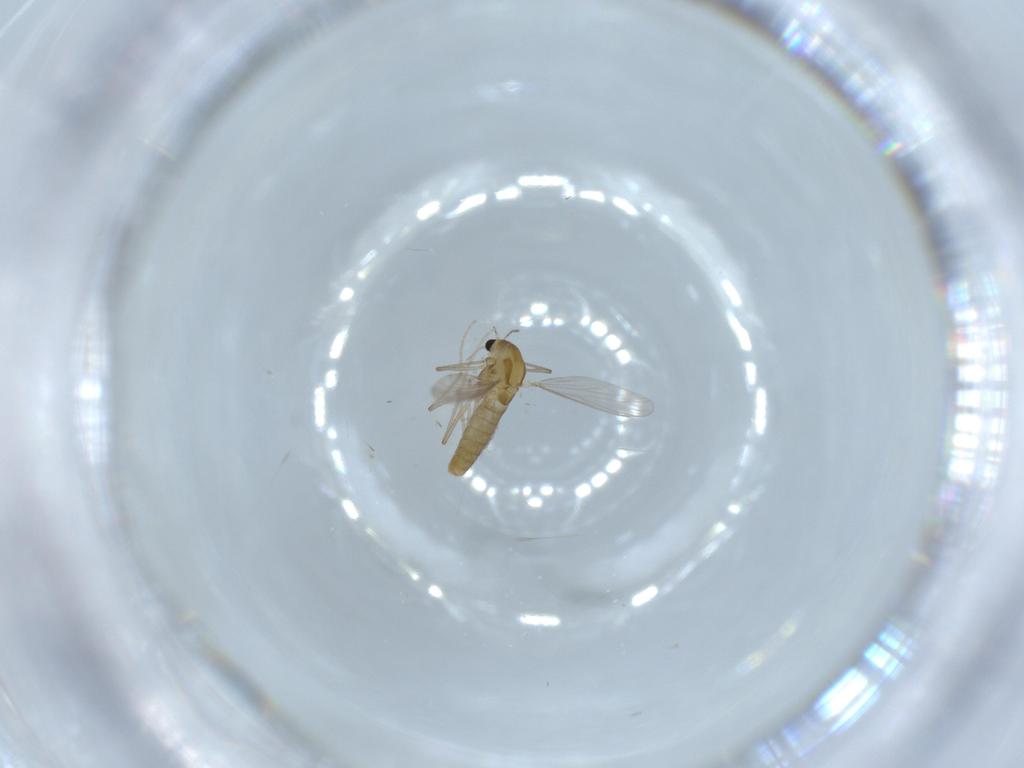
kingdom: Animalia
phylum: Arthropoda
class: Insecta
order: Diptera
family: Chironomidae
